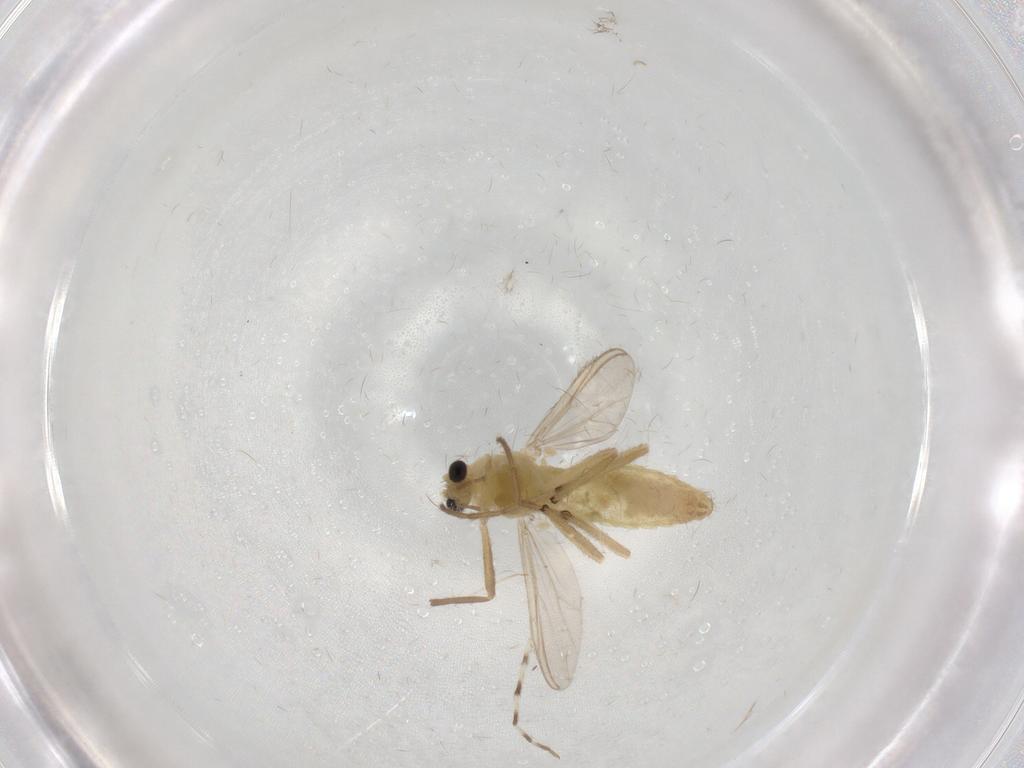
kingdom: Animalia
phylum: Arthropoda
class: Insecta
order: Diptera
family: Chironomidae
